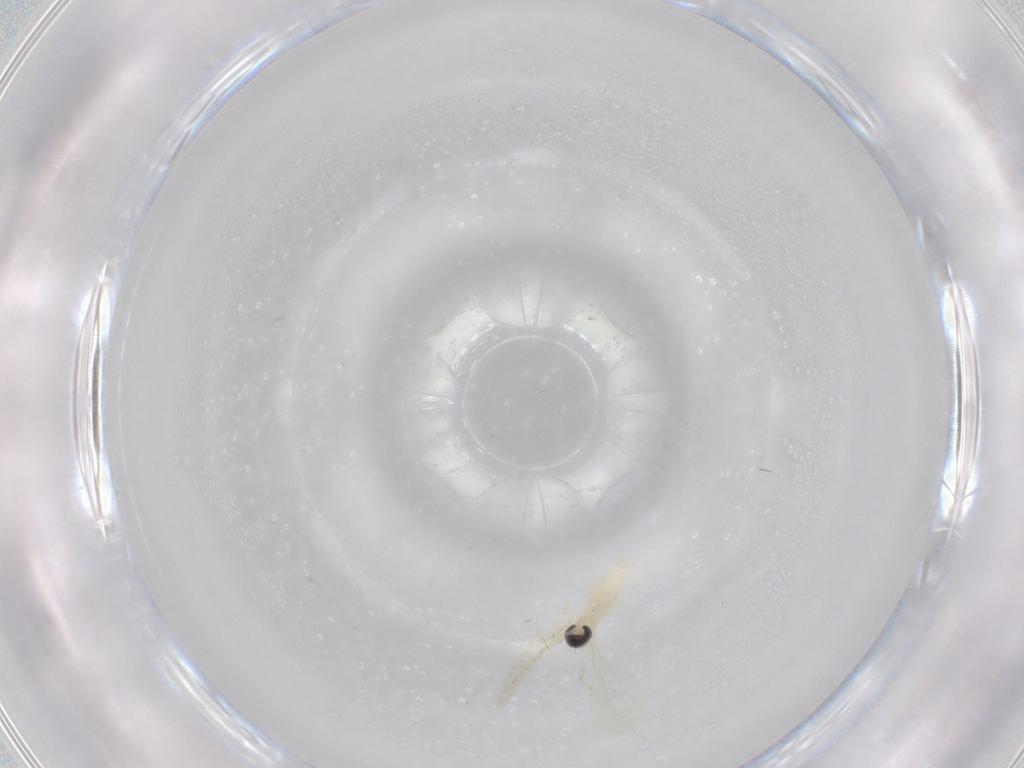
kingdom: Animalia
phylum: Arthropoda
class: Insecta
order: Diptera
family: Cecidomyiidae
